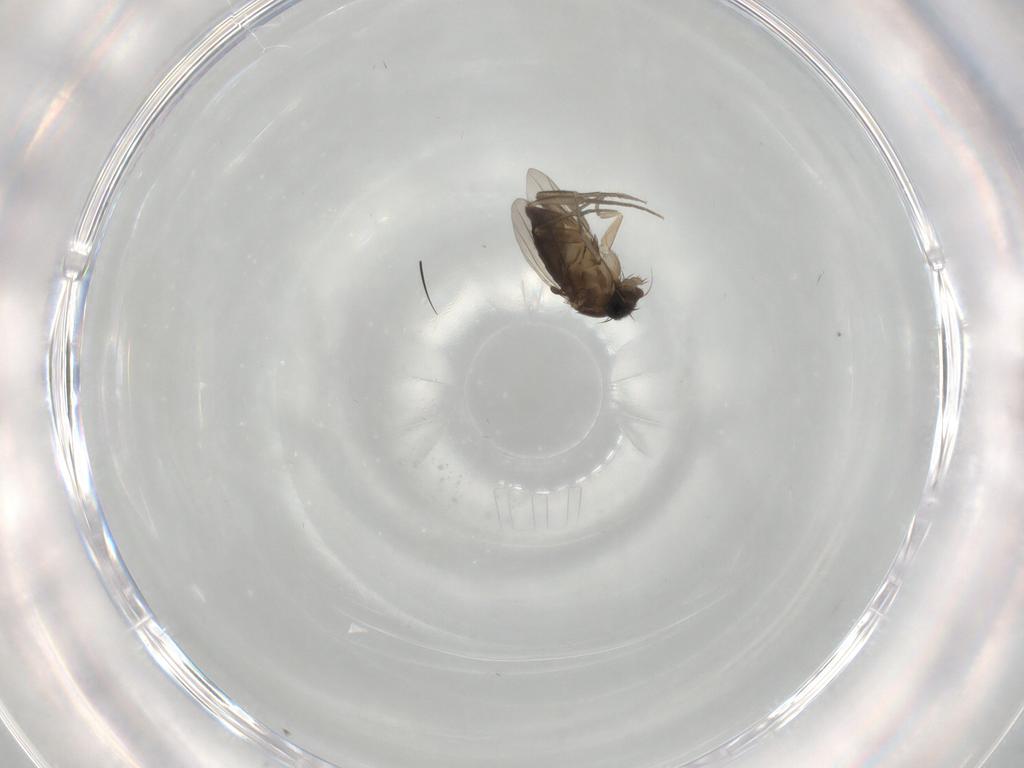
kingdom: Animalia
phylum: Arthropoda
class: Insecta
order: Diptera
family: Phoridae
